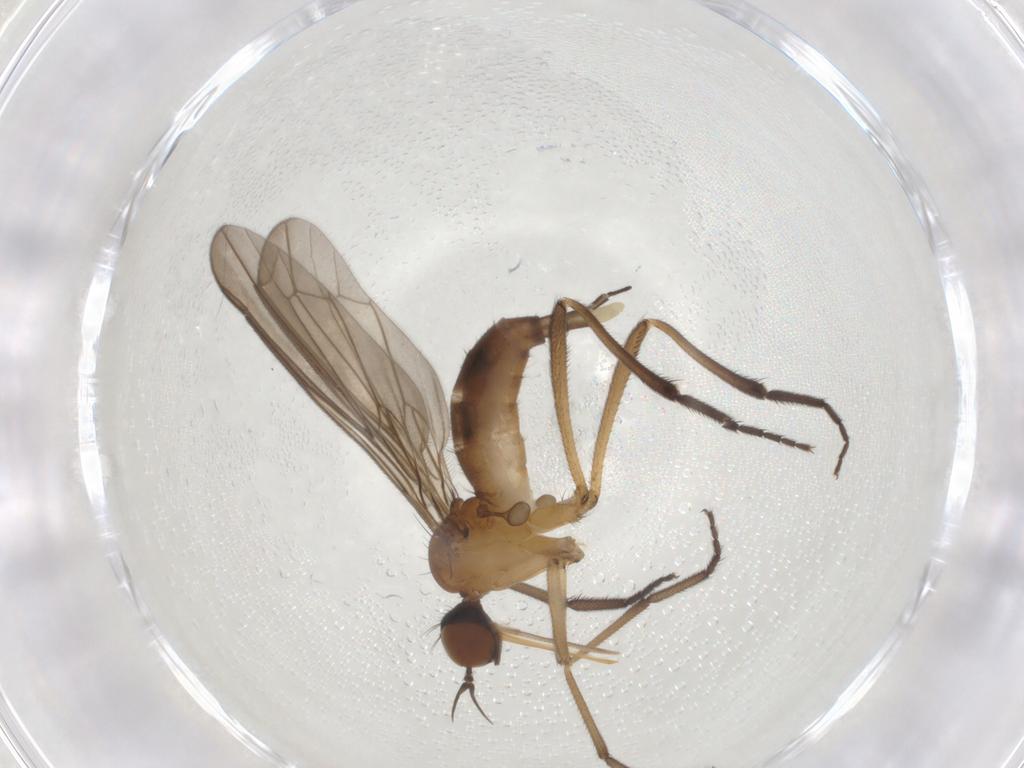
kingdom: Animalia
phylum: Arthropoda
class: Insecta
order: Diptera
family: Empididae
